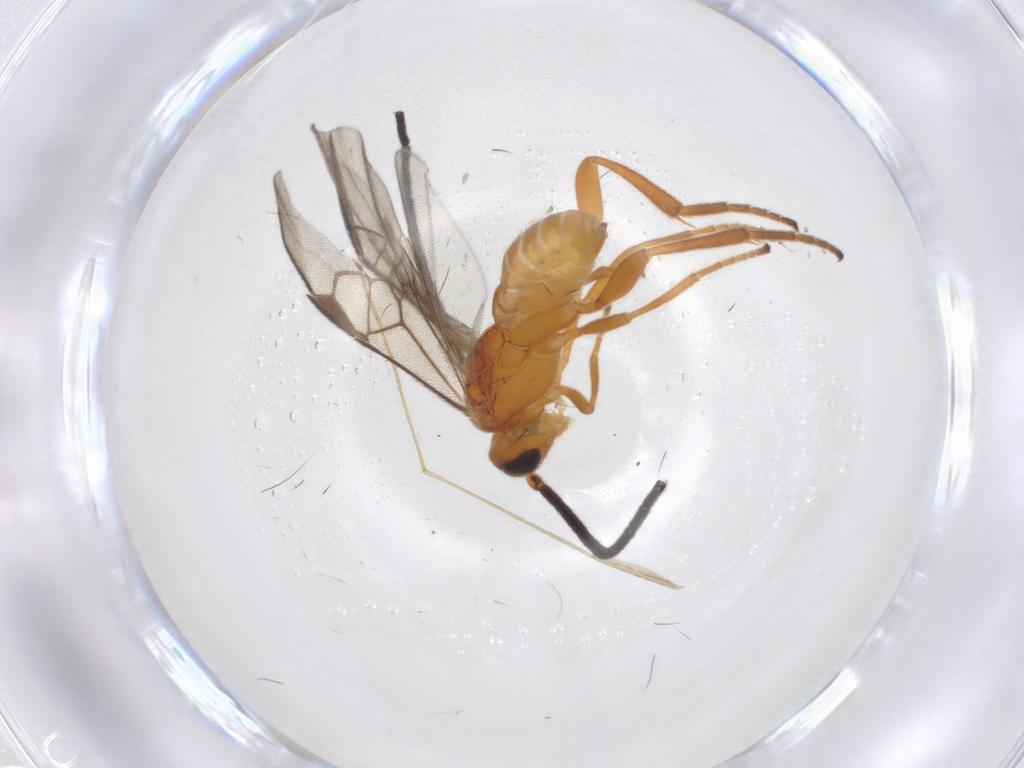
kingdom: Animalia
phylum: Arthropoda
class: Insecta
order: Hymenoptera
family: Braconidae
